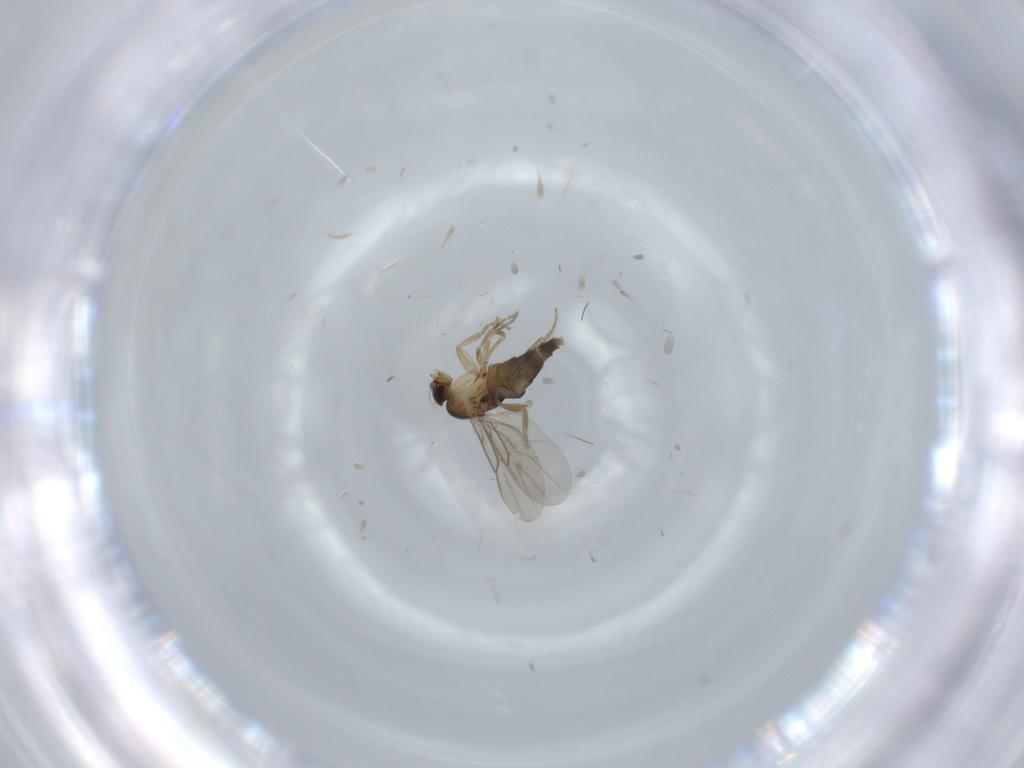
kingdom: Animalia
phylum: Arthropoda
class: Insecta
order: Diptera
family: Phoridae
